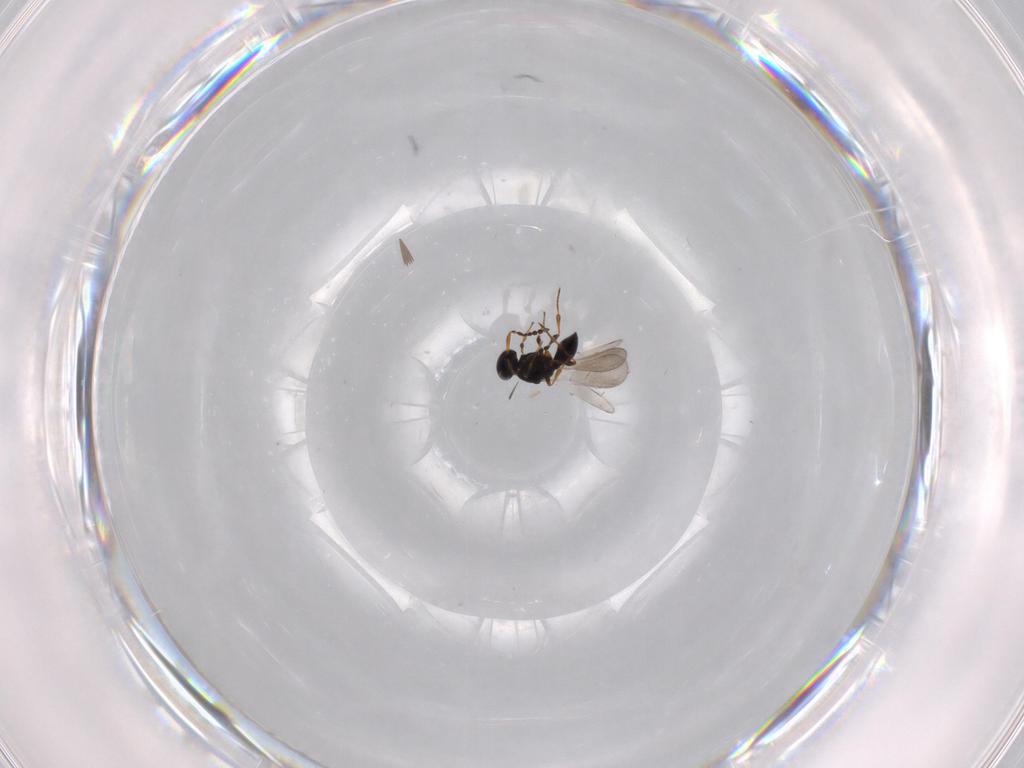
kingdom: Animalia
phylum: Arthropoda
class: Insecta
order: Hymenoptera
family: Platygastridae
